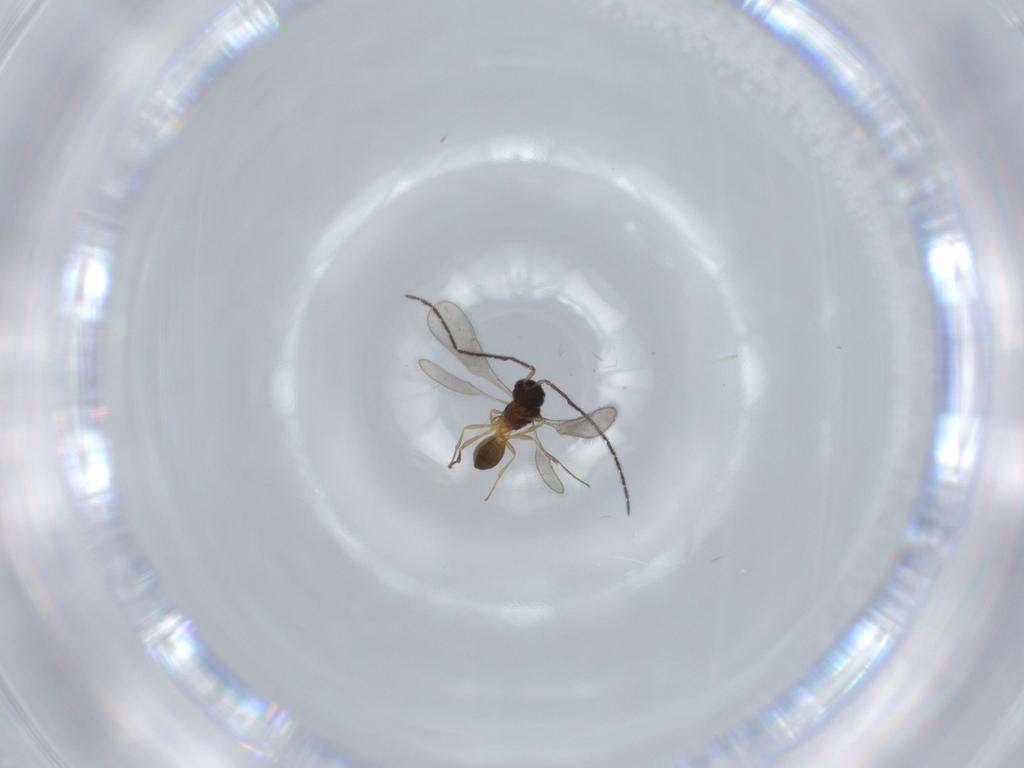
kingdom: Animalia
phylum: Arthropoda
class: Insecta
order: Hymenoptera
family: Scelionidae
